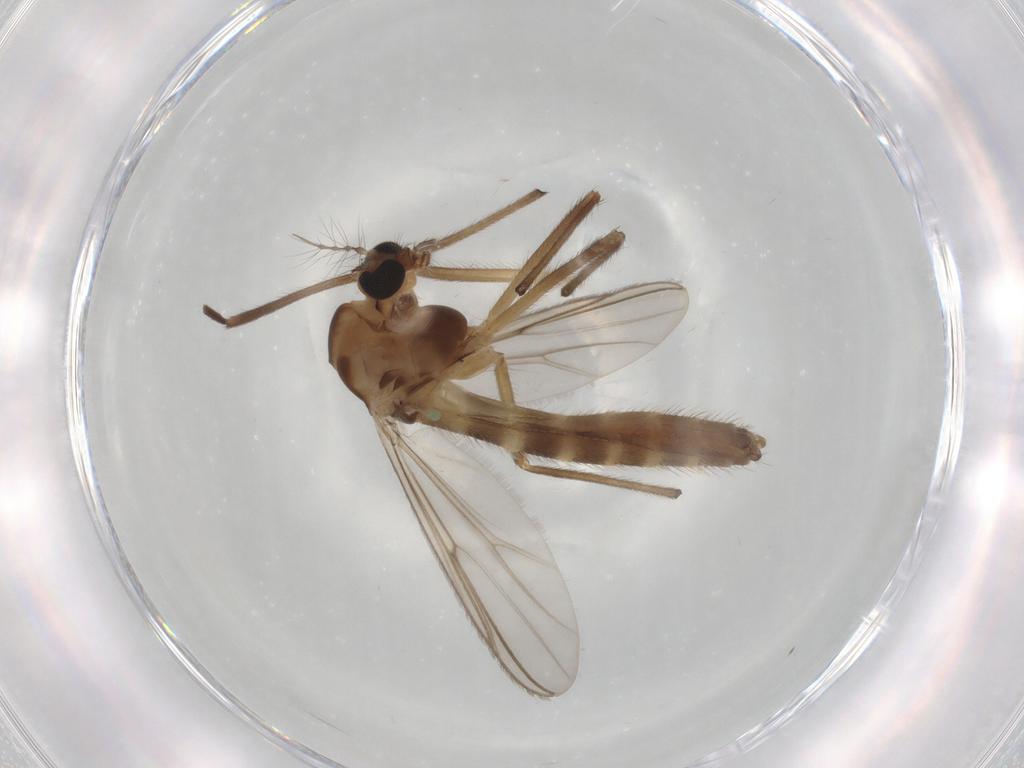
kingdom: Animalia
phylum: Arthropoda
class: Insecta
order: Diptera
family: Chironomidae
